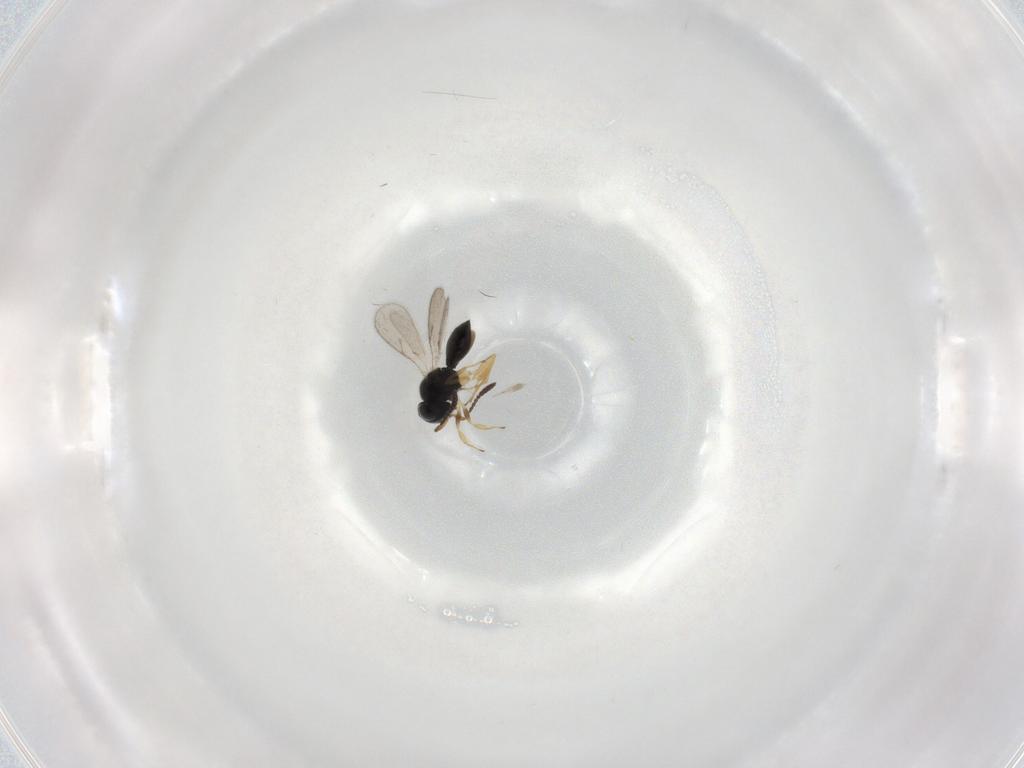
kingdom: Animalia
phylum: Arthropoda
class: Insecta
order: Hymenoptera
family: Scelionidae
